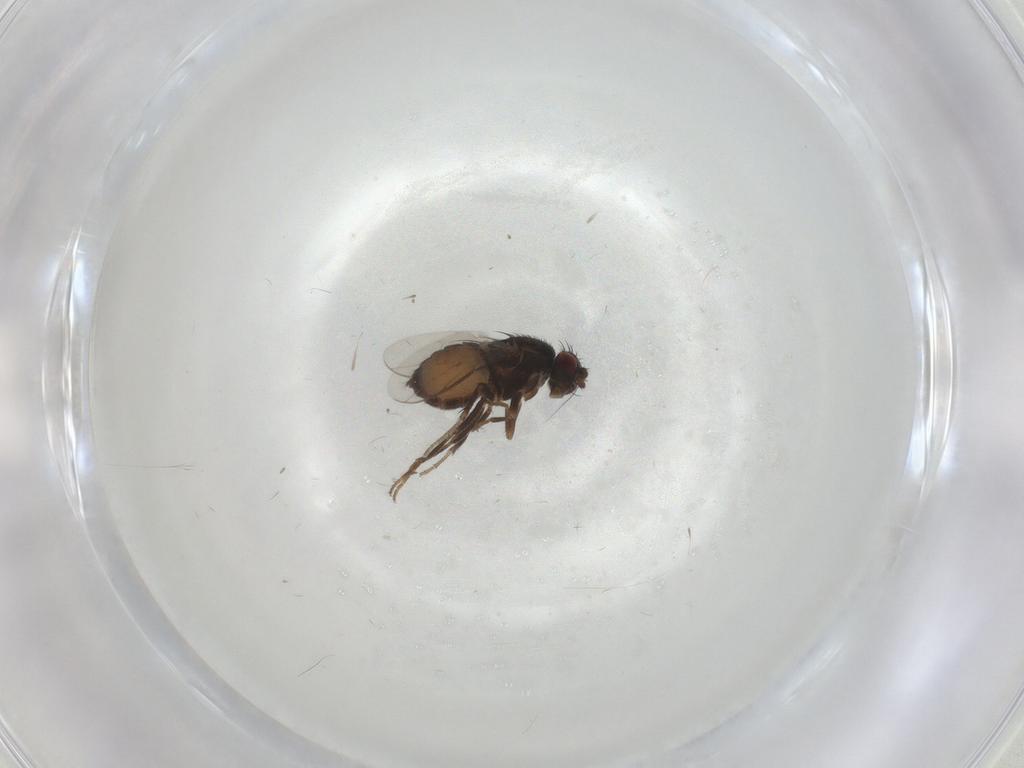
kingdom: Animalia
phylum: Arthropoda
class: Insecta
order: Diptera
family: Sphaeroceridae
